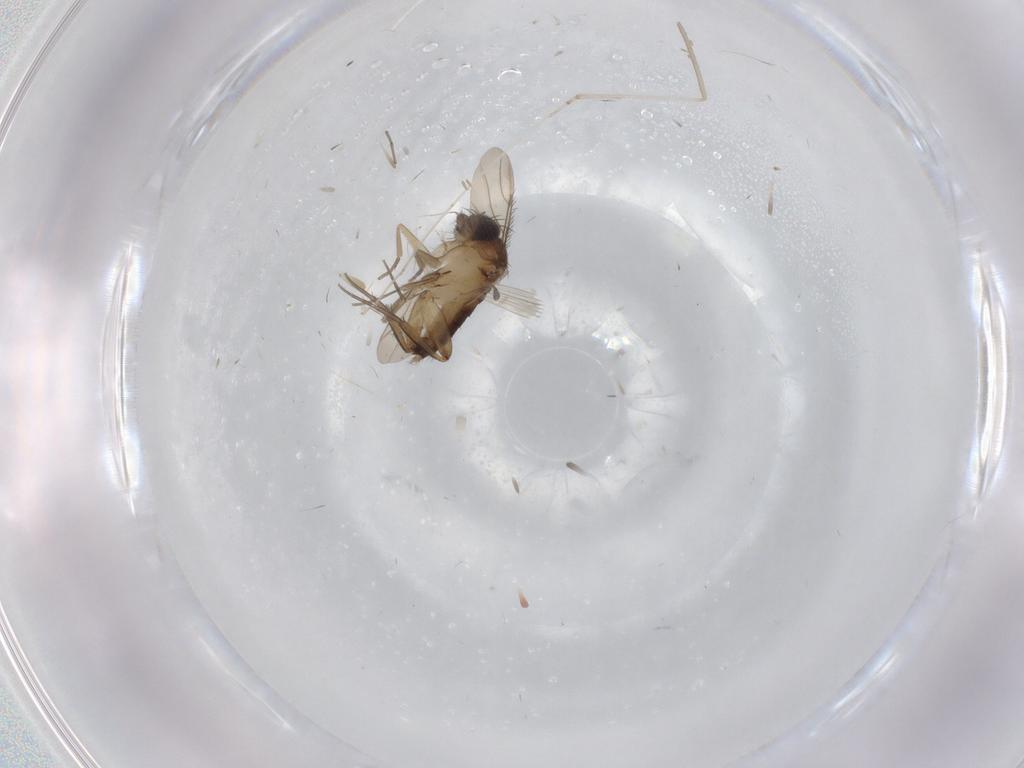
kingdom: Animalia
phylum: Arthropoda
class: Insecta
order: Diptera
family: Phoridae
